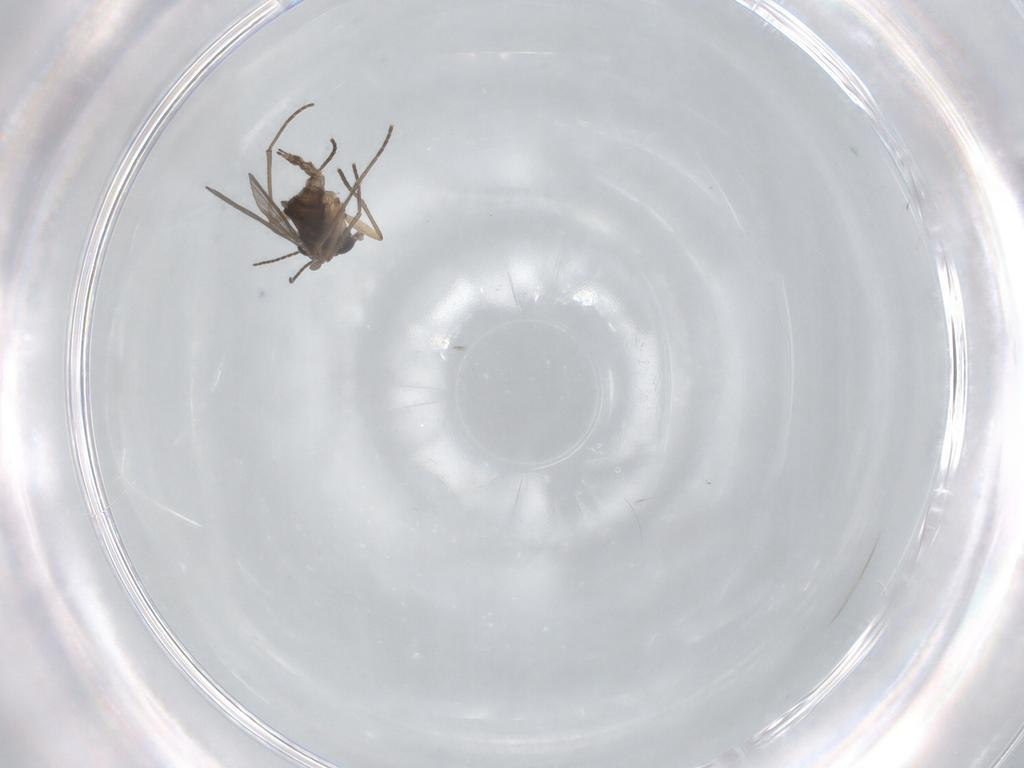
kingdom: Animalia
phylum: Arthropoda
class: Insecta
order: Diptera
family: Sciaridae
